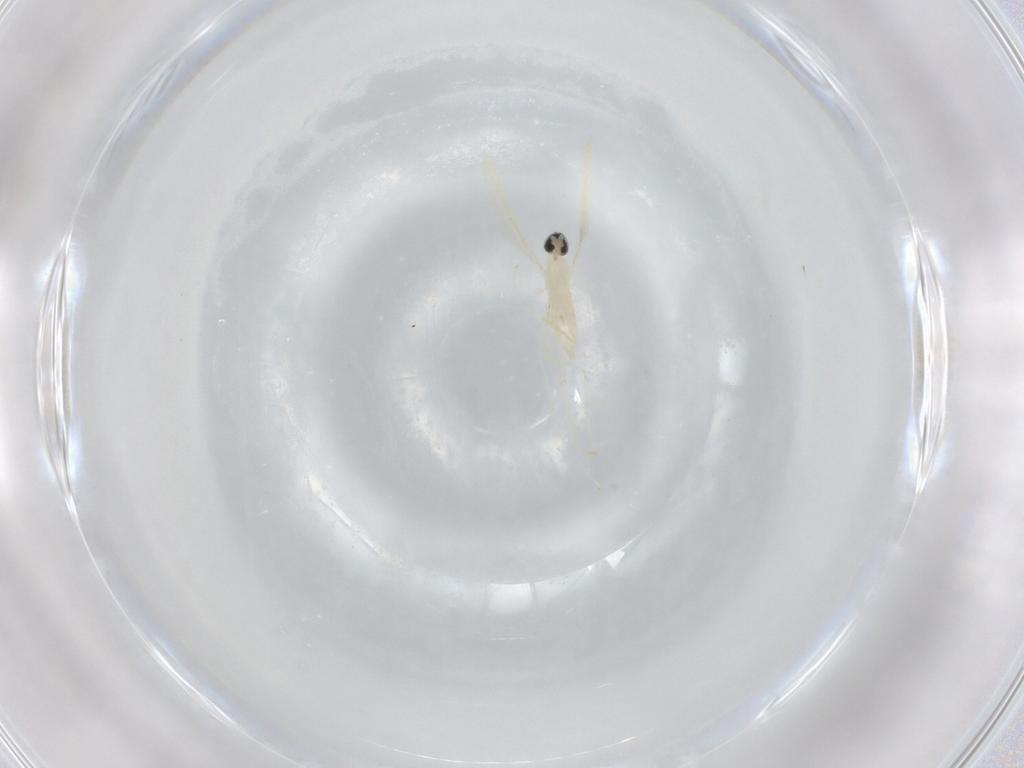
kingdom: Animalia
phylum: Arthropoda
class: Insecta
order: Diptera
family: Cecidomyiidae
